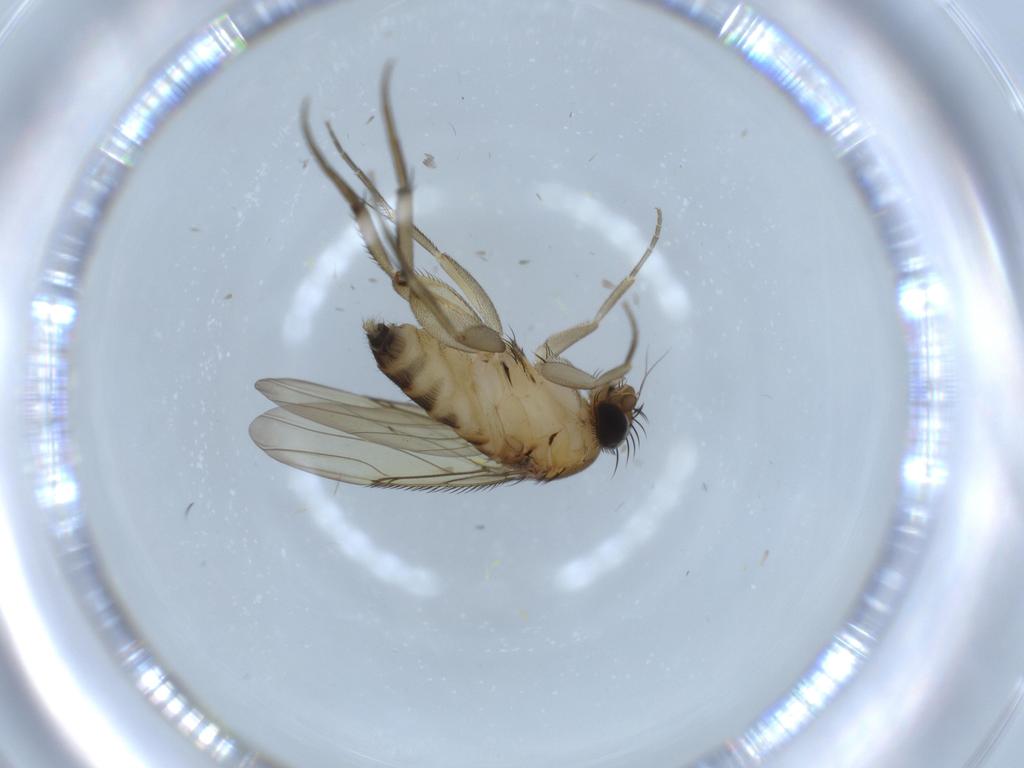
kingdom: Animalia
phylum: Arthropoda
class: Insecta
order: Diptera
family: Phoridae
